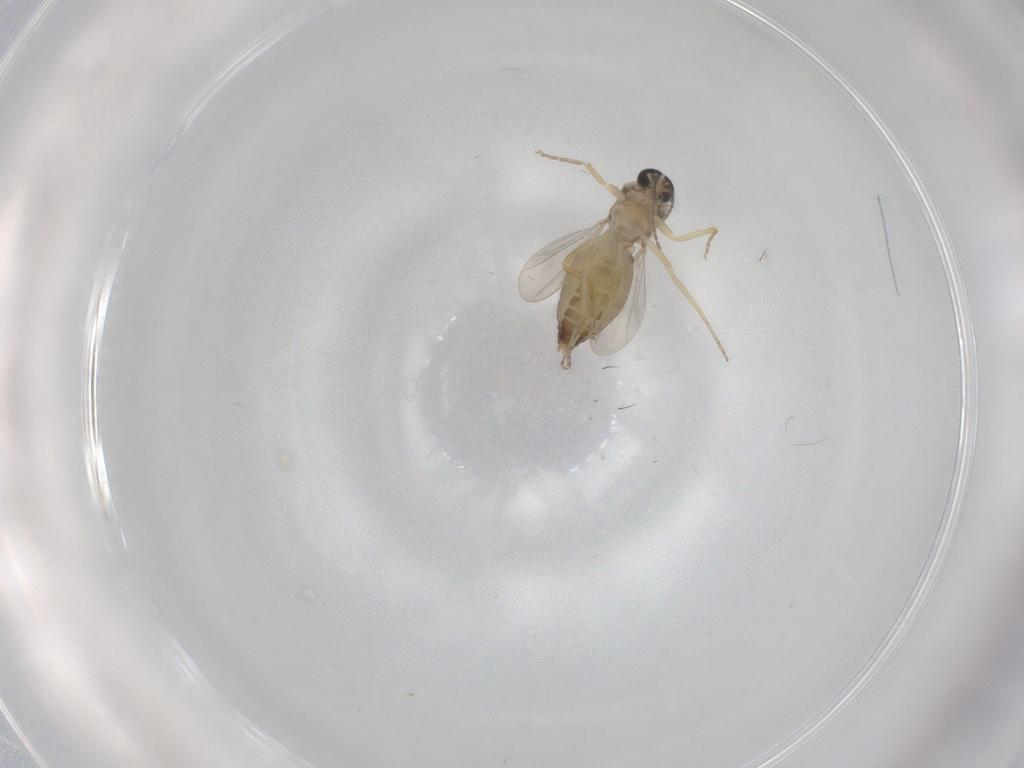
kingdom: Animalia
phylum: Arthropoda
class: Insecta
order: Diptera
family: Ceratopogonidae
